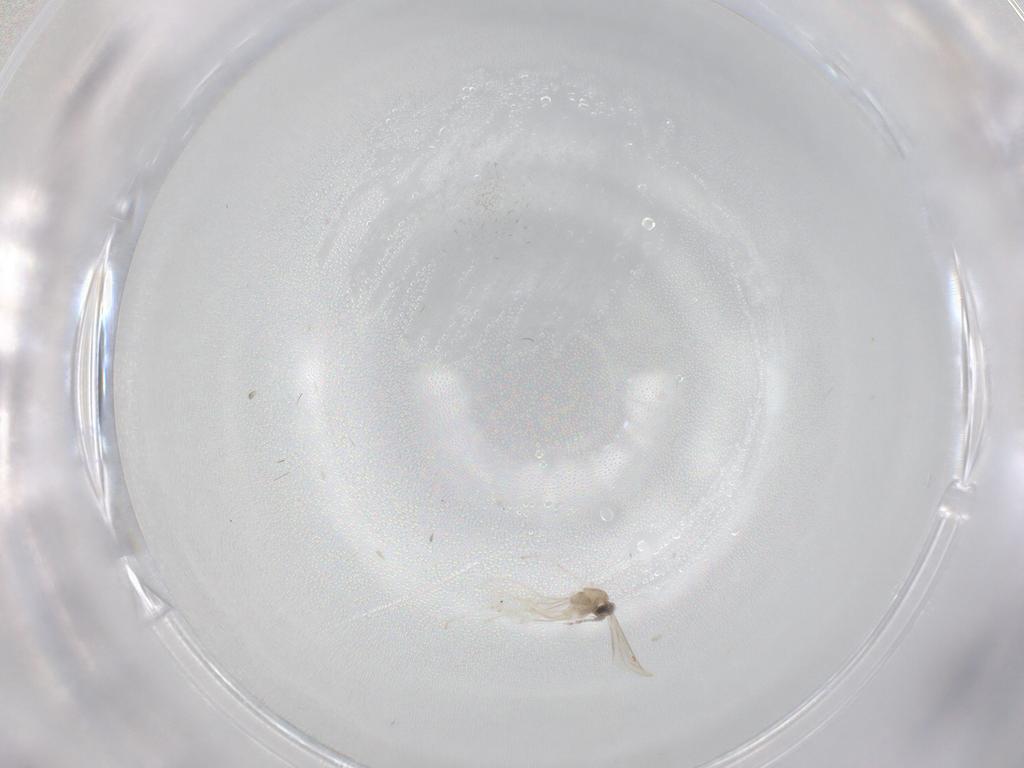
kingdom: Animalia
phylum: Arthropoda
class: Insecta
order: Diptera
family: Cecidomyiidae
